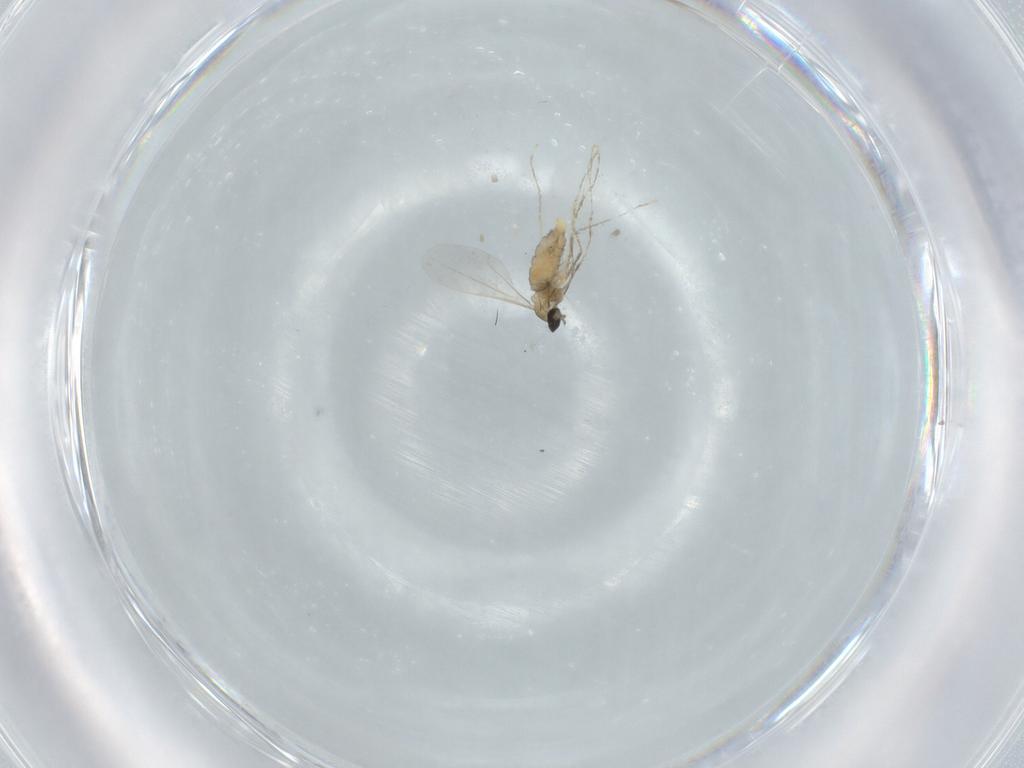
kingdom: Animalia
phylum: Arthropoda
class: Insecta
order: Diptera
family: Cecidomyiidae
